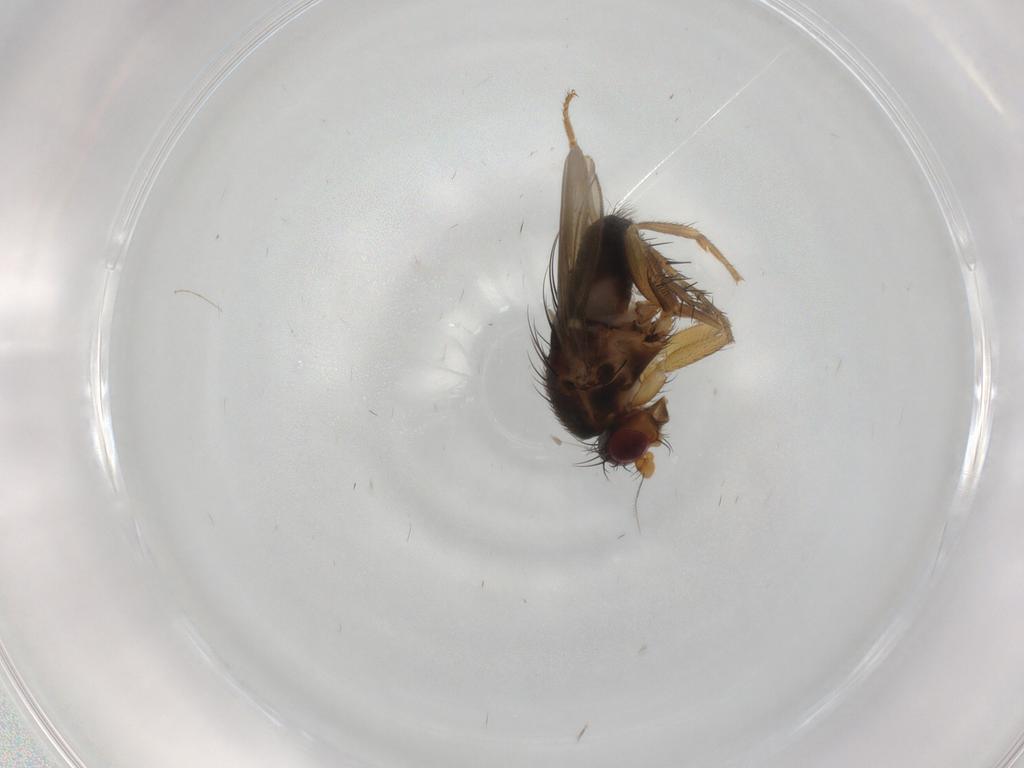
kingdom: Animalia
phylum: Arthropoda
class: Insecta
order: Diptera
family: Sphaeroceridae
